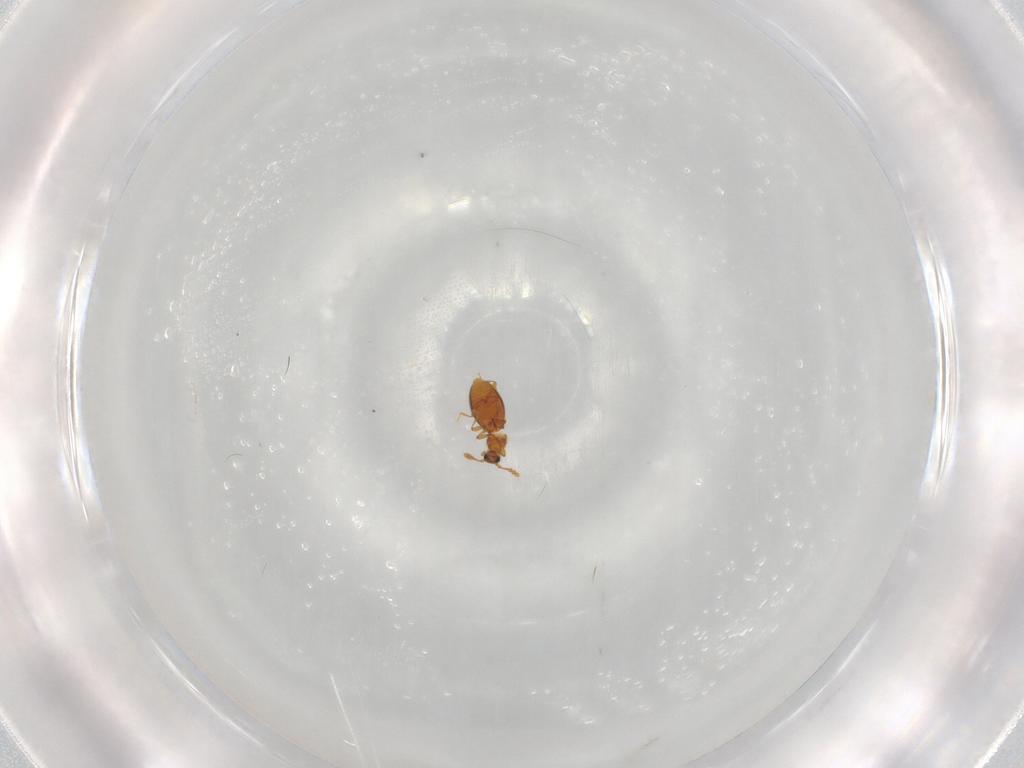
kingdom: Animalia
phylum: Arthropoda
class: Insecta
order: Coleoptera
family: Staphylinidae
